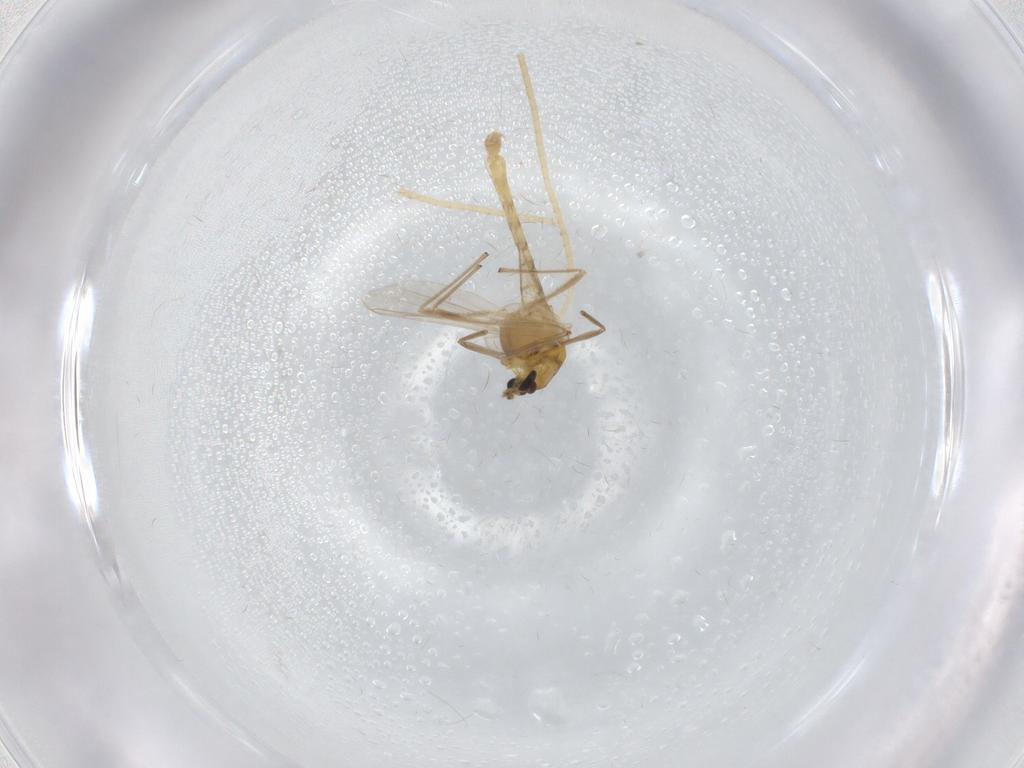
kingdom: Animalia
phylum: Arthropoda
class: Insecta
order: Diptera
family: Chironomidae
